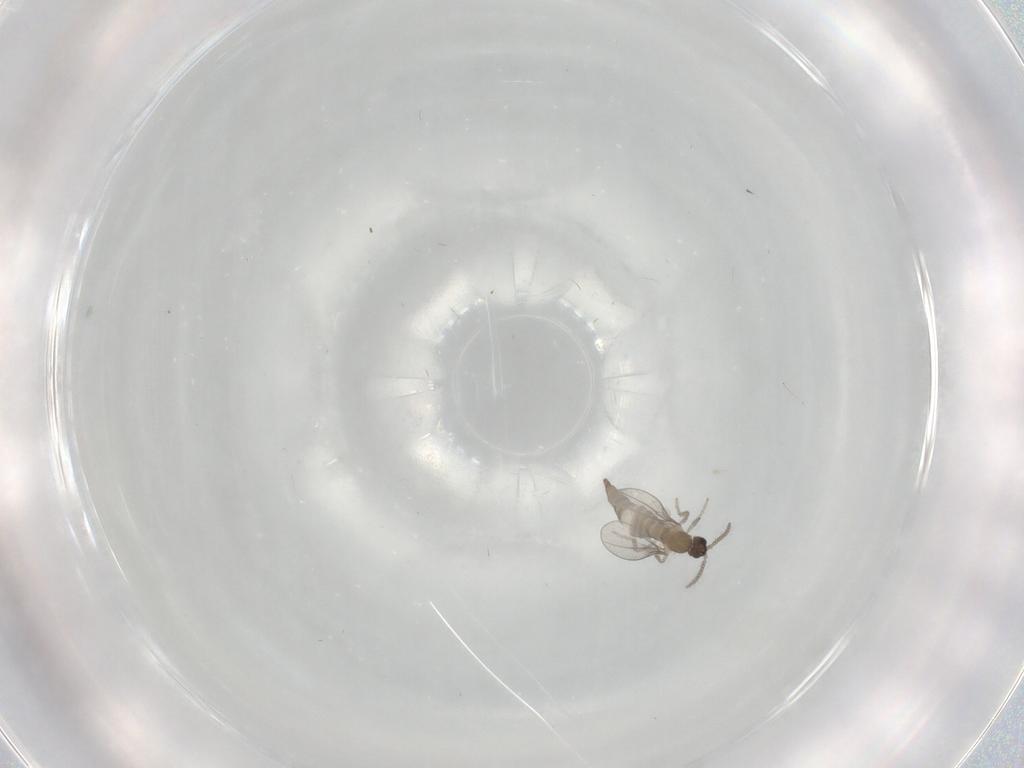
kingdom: Animalia
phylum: Arthropoda
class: Insecta
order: Diptera
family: Cecidomyiidae
